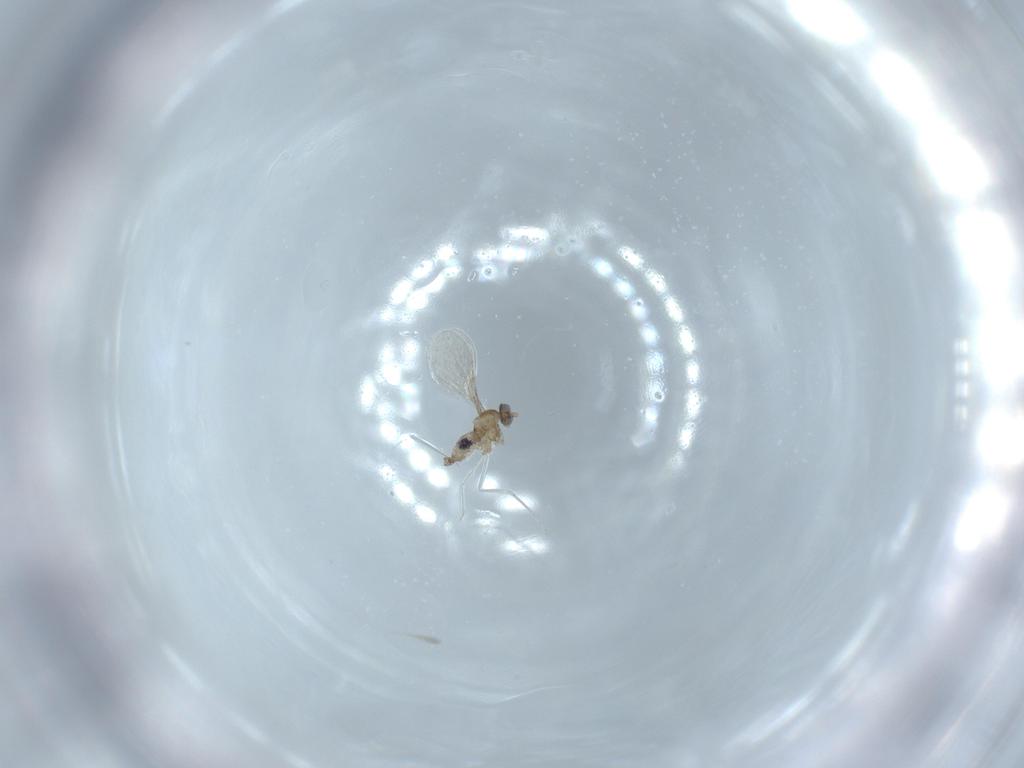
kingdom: Animalia
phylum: Arthropoda
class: Insecta
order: Diptera
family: Cecidomyiidae
